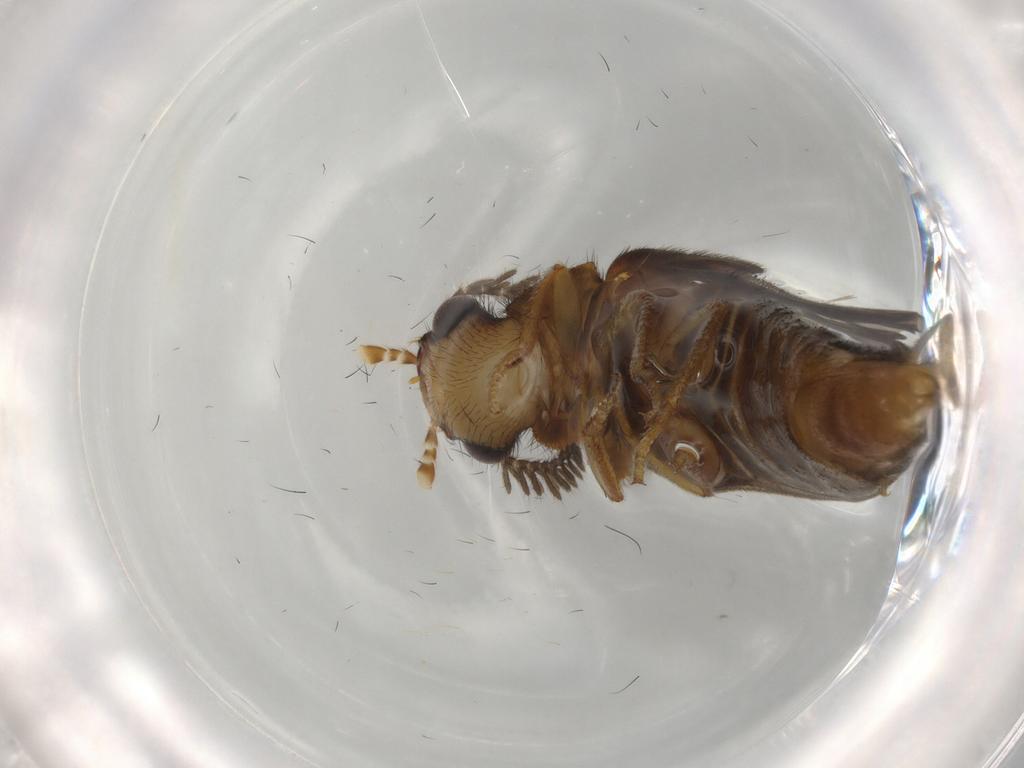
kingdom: Animalia
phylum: Arthropoda
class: Insecta
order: Coleoptera
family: Phengodidae
